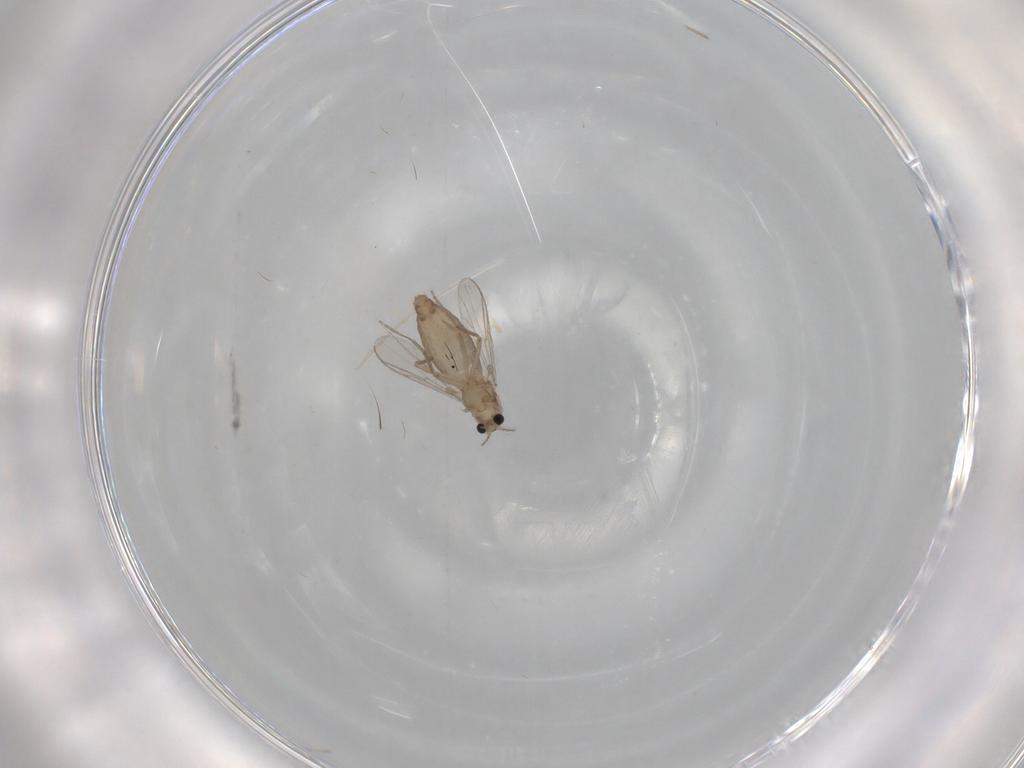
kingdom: Animalia
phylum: Arthropoda
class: Insecta
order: Diptera
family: Chironomidae
